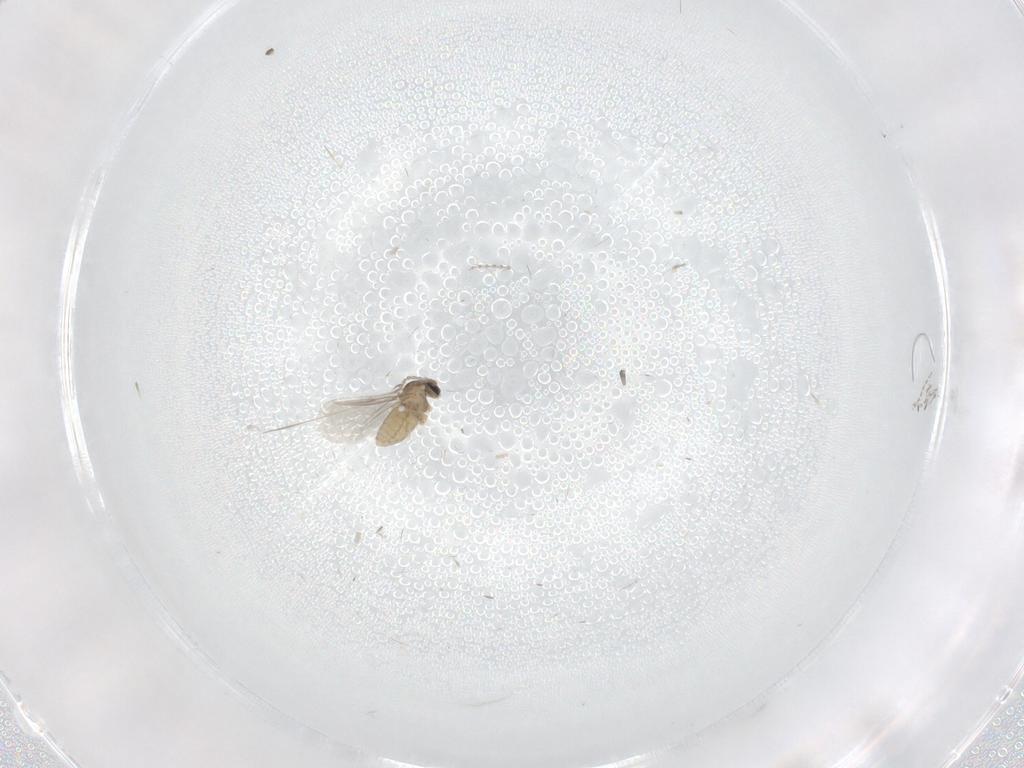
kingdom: Animalia
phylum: Arthropoda
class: Insecta
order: Diptera
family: Cecidomyiidae
